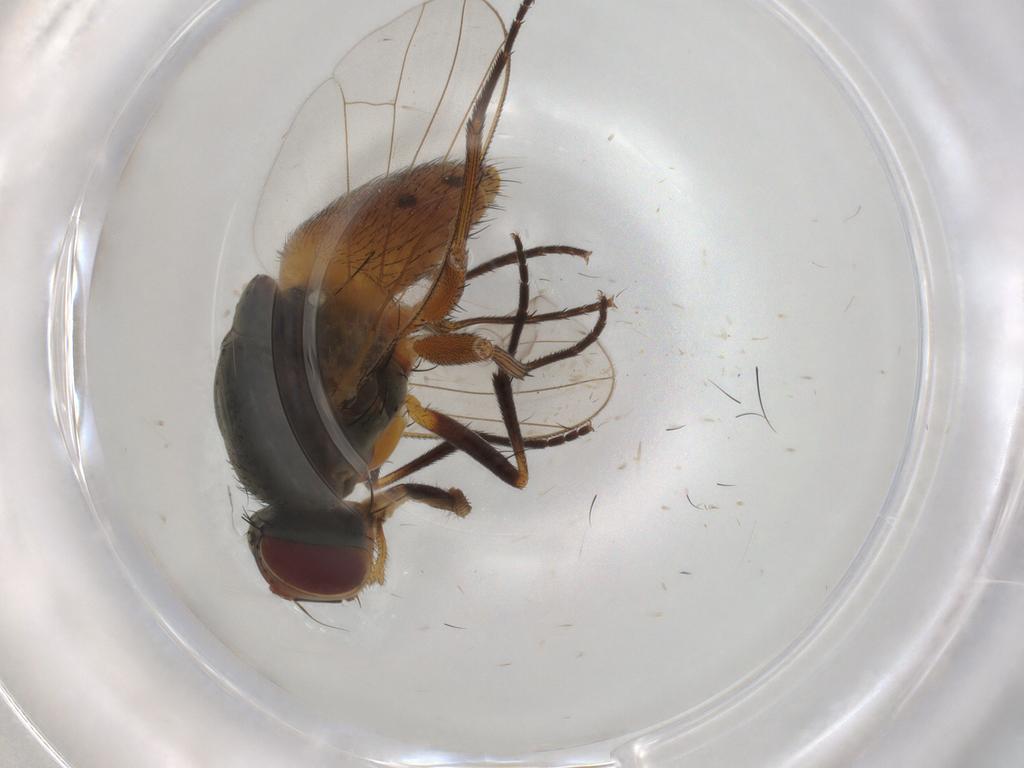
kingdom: Animalia
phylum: Arthropoda
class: Insecta
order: Diptera
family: Muscidae
